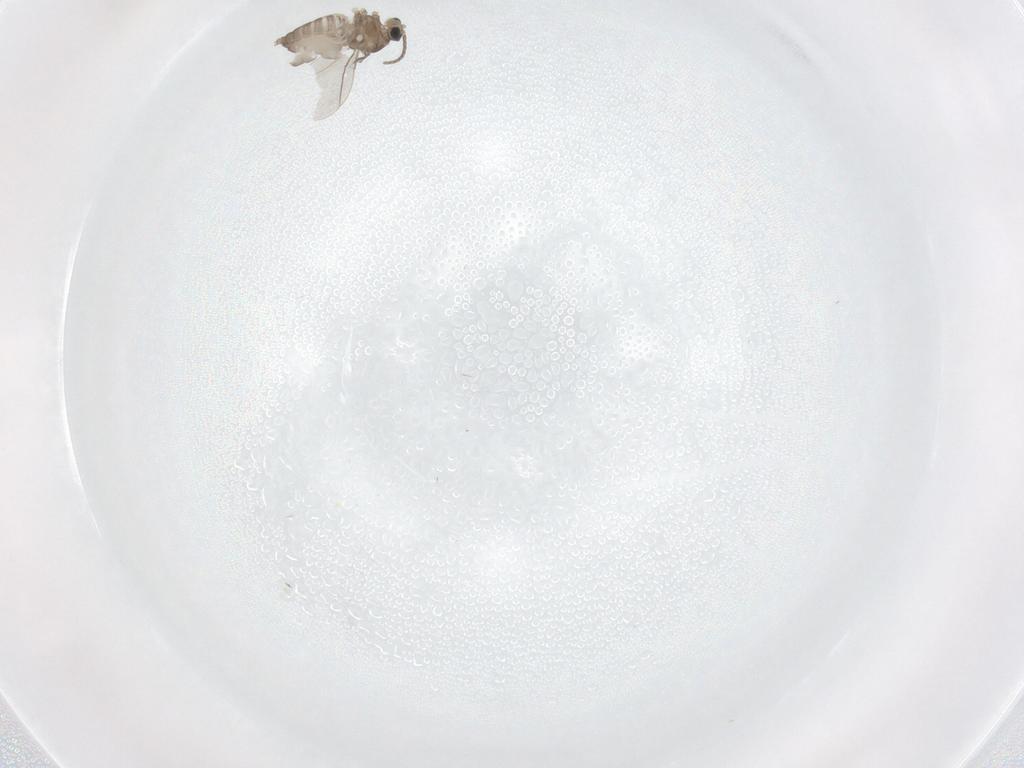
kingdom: Animalia
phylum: Arthropoda
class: Insecta
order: Diptera
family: Cecidomyiidae
